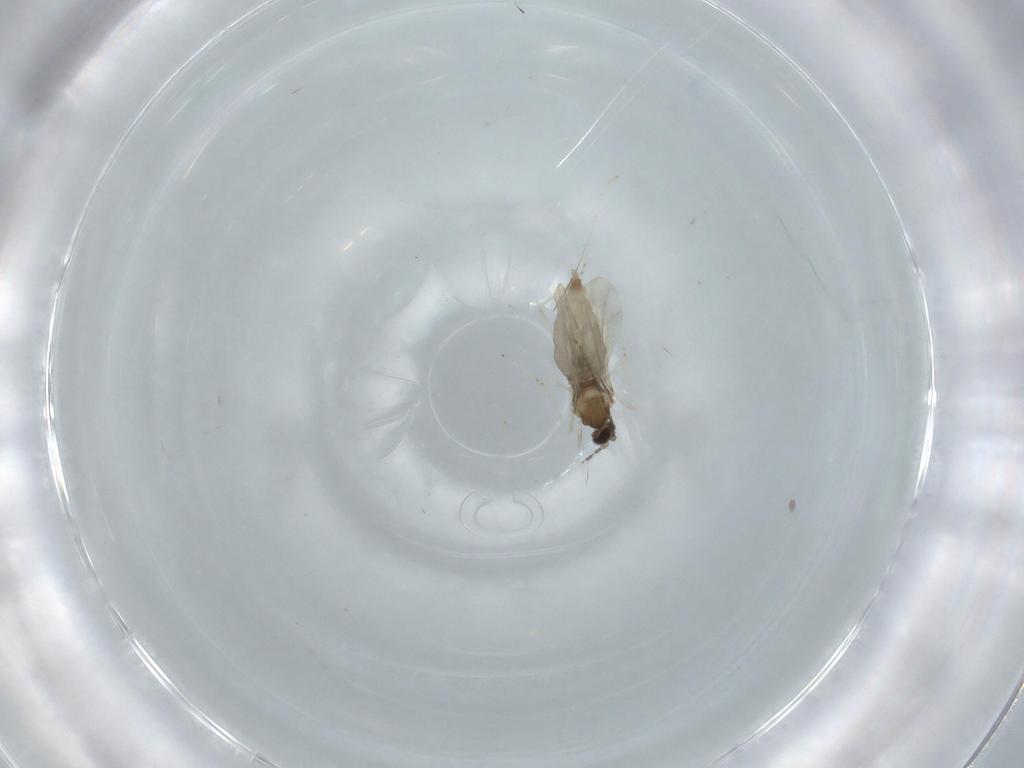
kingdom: Animalia
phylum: Arthropoda
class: Insecta
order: Diptera
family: Cecidomyiidae
